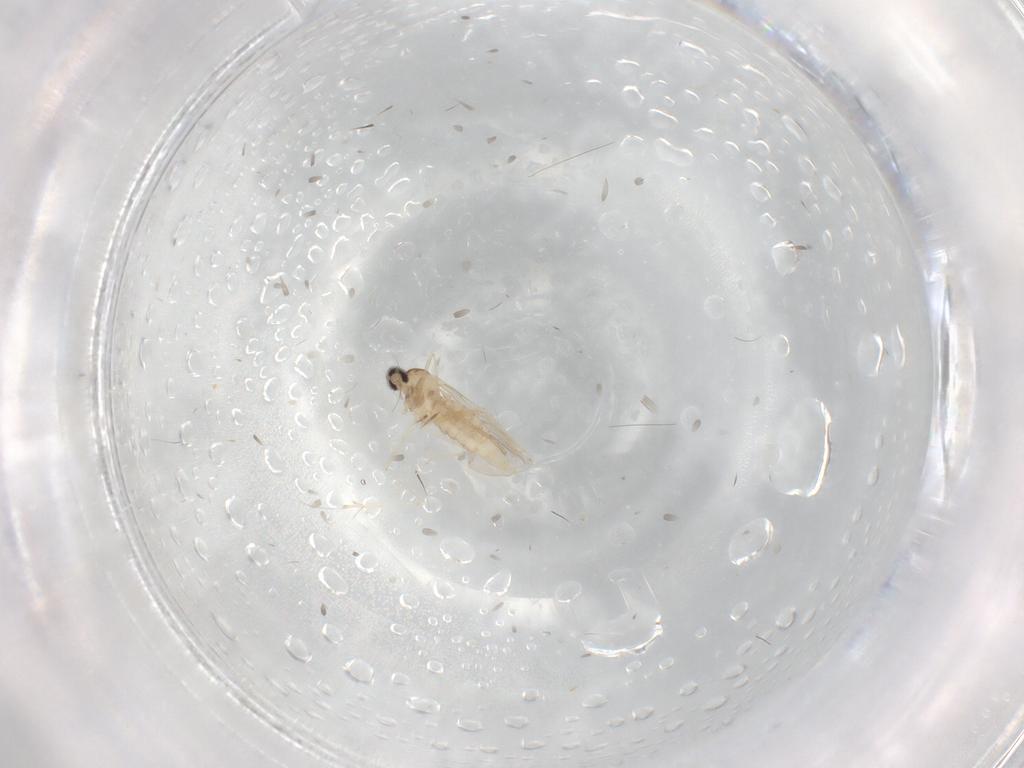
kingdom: Animalia
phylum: Arthropoda
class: Insecta
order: Diptera
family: Cecidomyiidae
